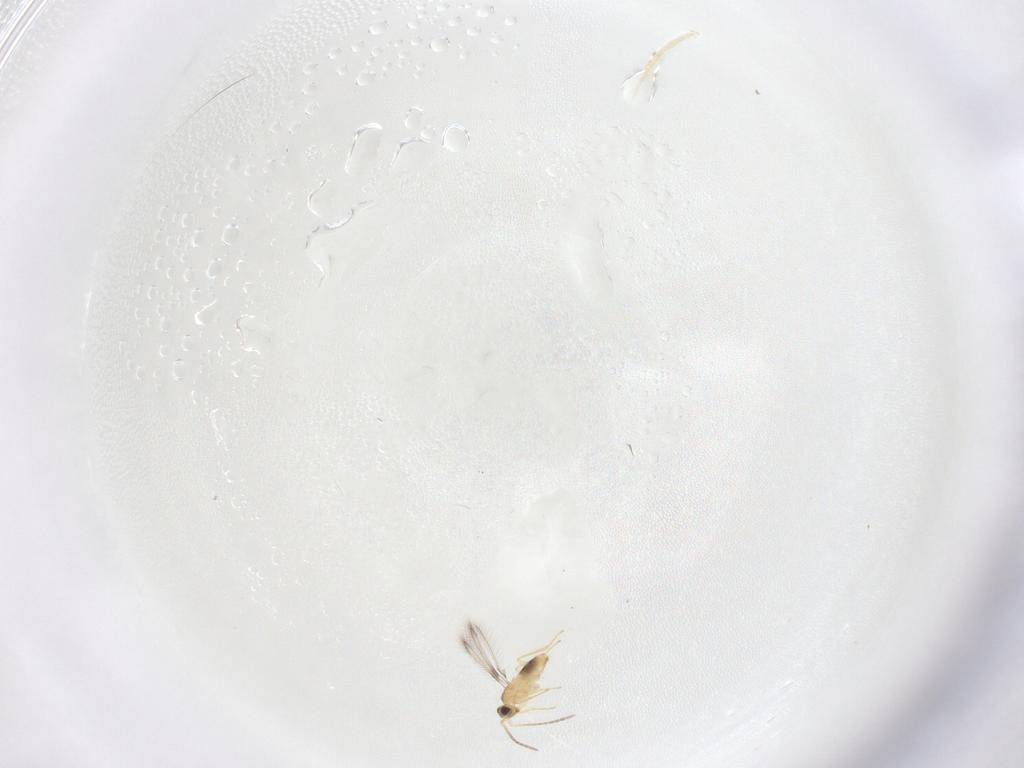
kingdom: Animalia
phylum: Arthropoda
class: Insecta
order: Hymenoptera
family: Mymaridae
